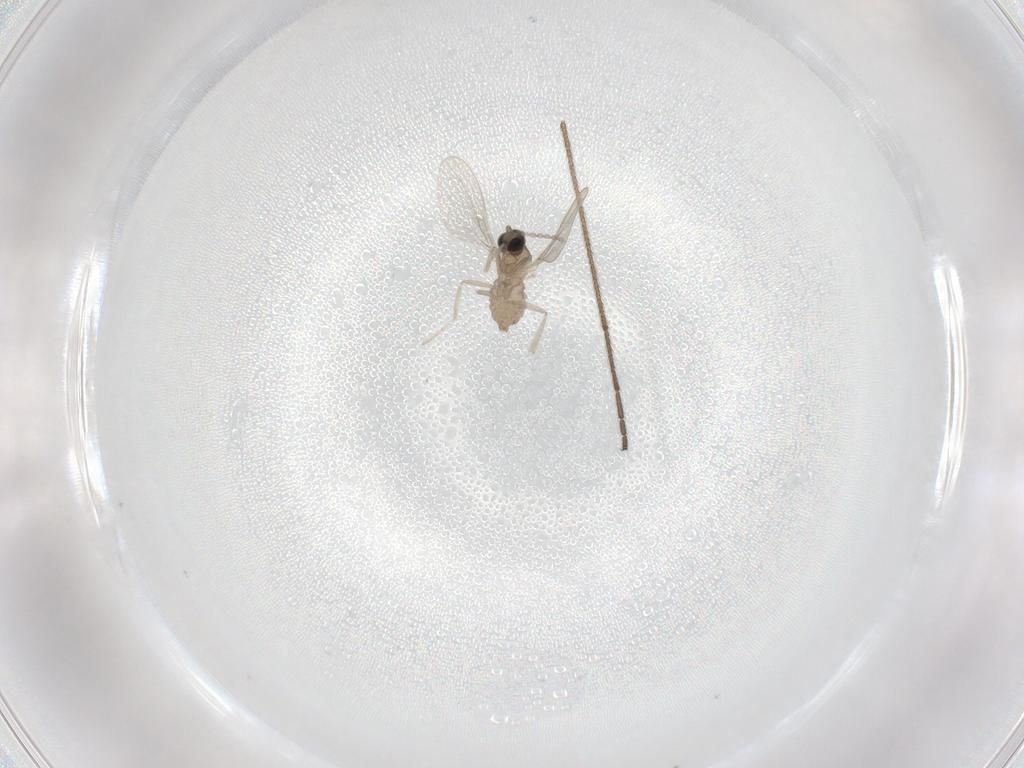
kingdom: Animalia
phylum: Arthropoda
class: Insecta
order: Diptera
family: Limoniidae
